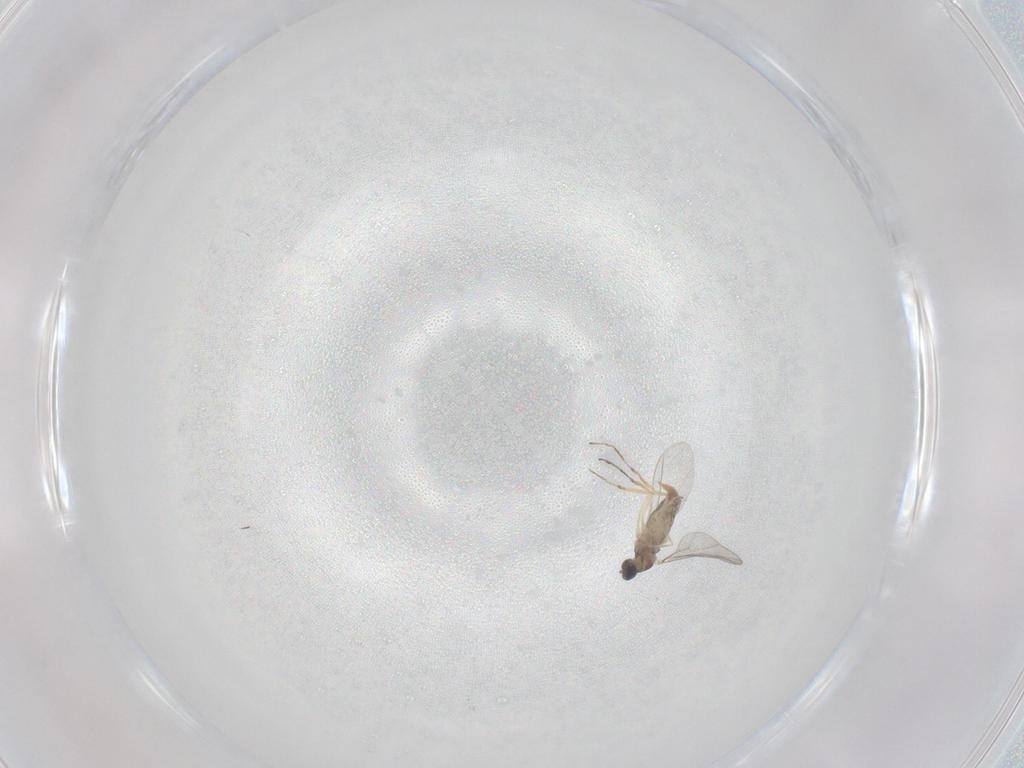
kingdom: Animalia
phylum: Arthropoda
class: Insecta
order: Diptera
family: Cecidomyiidae
